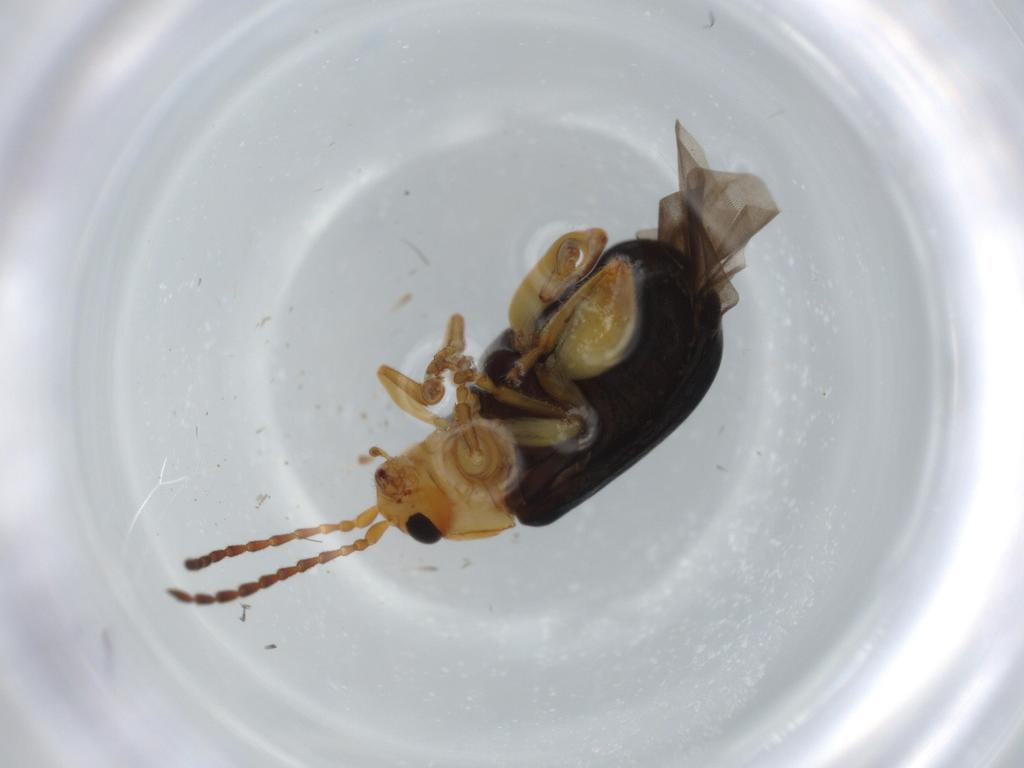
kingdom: Animalia
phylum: Arthropoda
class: Insecta
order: Coleoptera
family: Chrysomelidae
